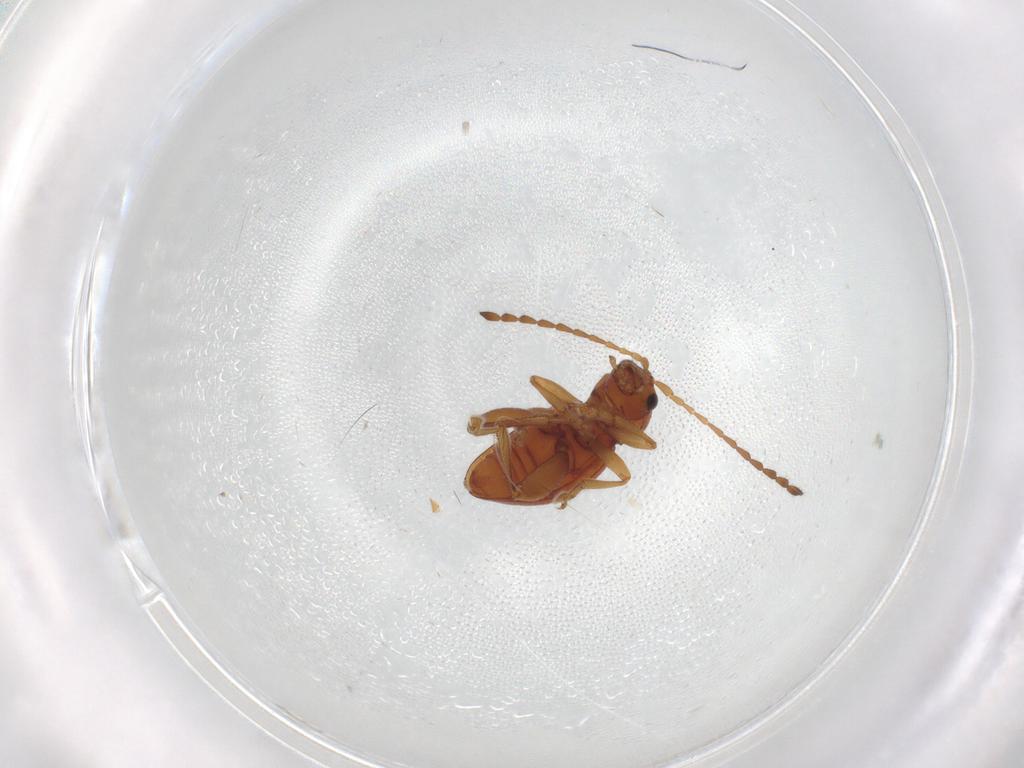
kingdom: Animalia
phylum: Arthropoda
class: Insecta
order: Coleoptera
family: Chrysomelidae
